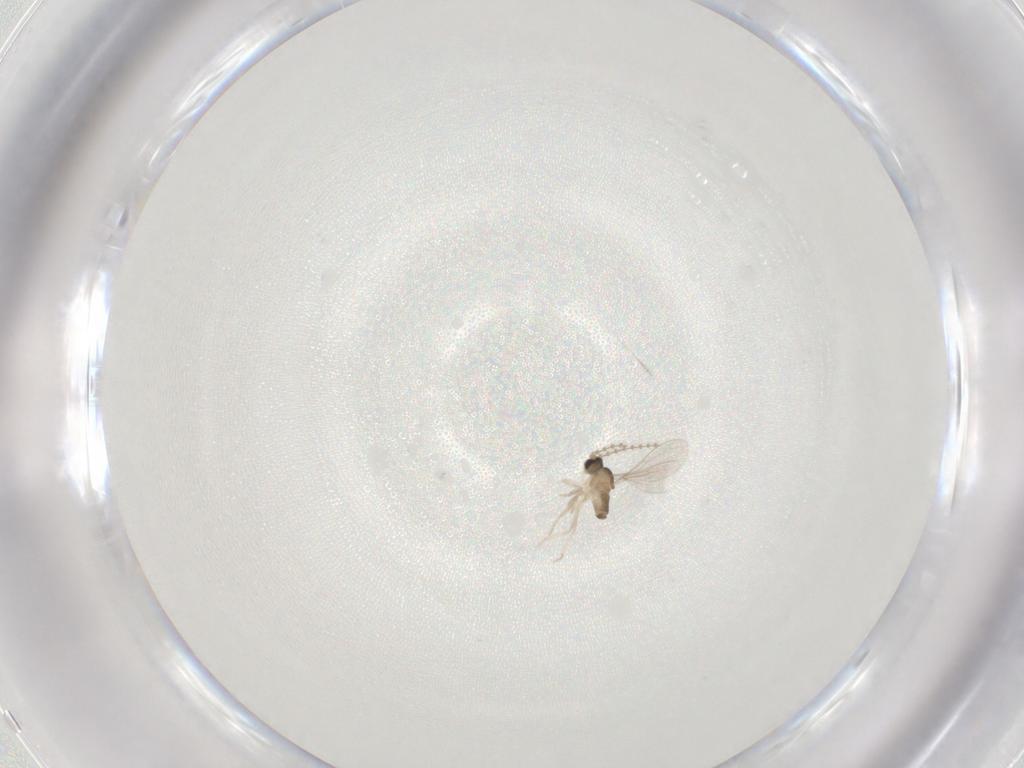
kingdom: Animalia
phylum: Arthropoda
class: Insecta
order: Diptera
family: Cecidomyiidae
